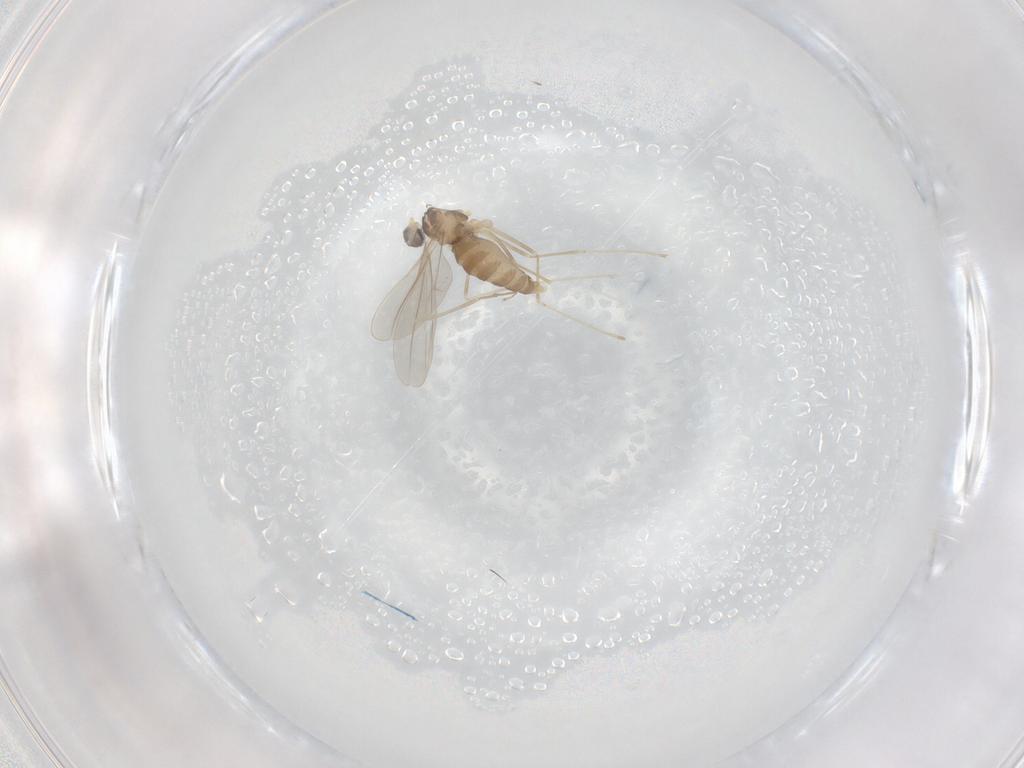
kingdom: Animalia
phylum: Arthropoda
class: Insecta
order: Diptera
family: Cecidomyiidae
